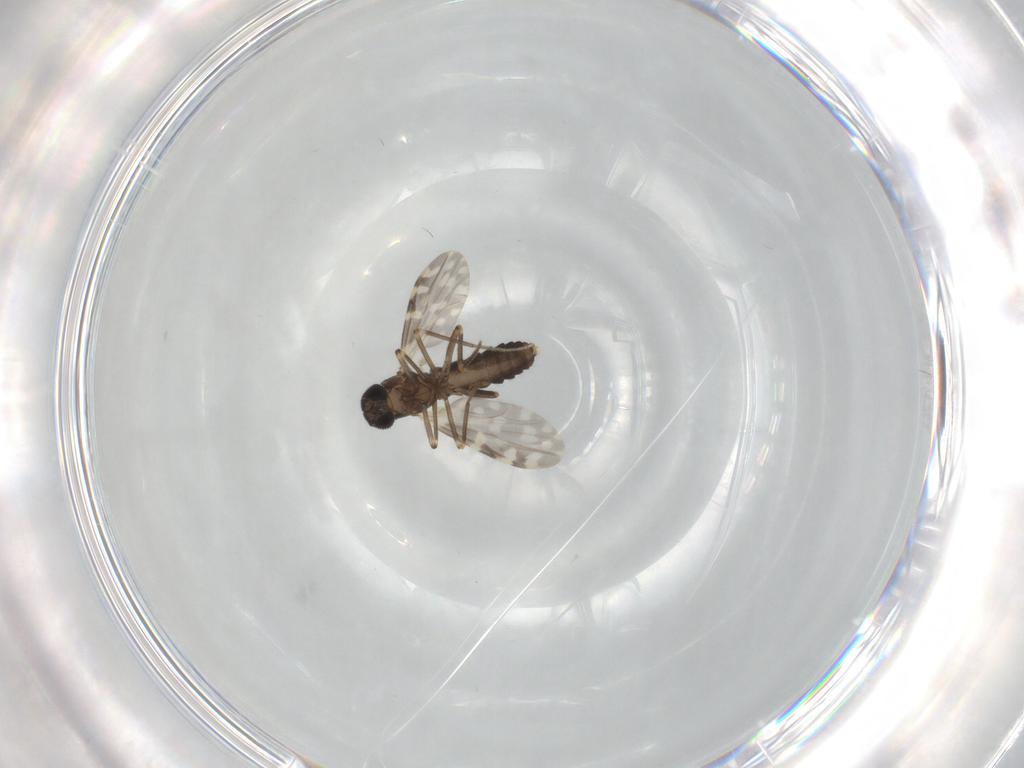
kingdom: Animalia
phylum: Arthropoda
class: Insecta
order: Diptera
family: Ceratopogonidae
